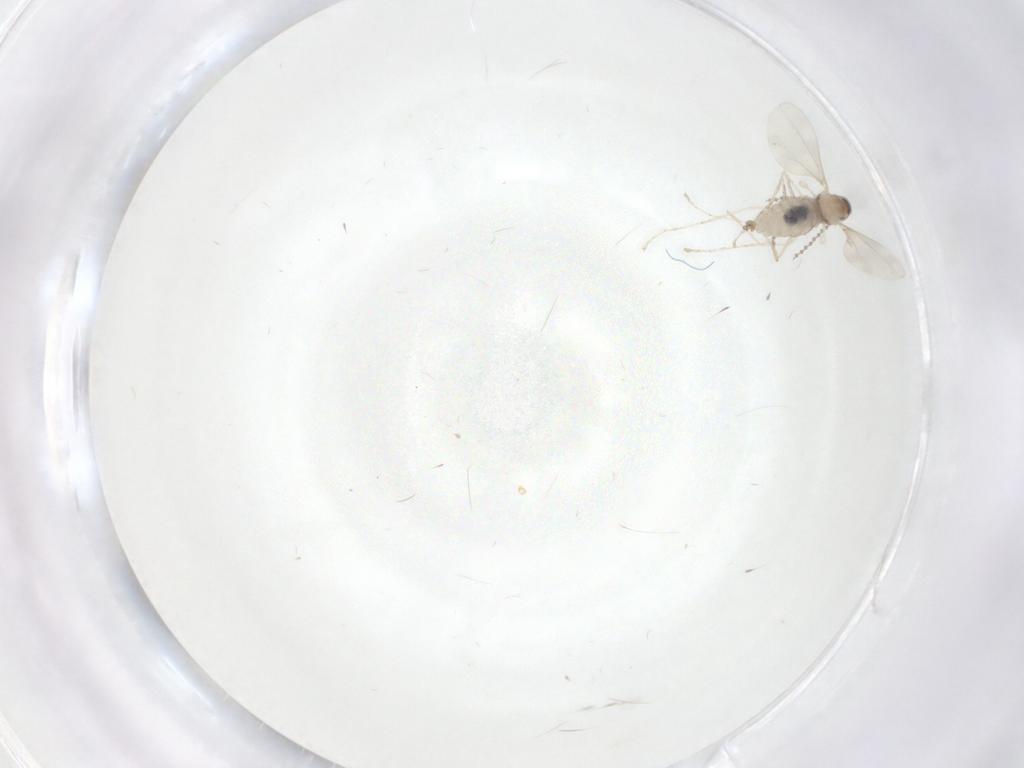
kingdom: Animalia
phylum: Arthropoda
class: Insecta
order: Diptera
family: Cecidomyiidae
